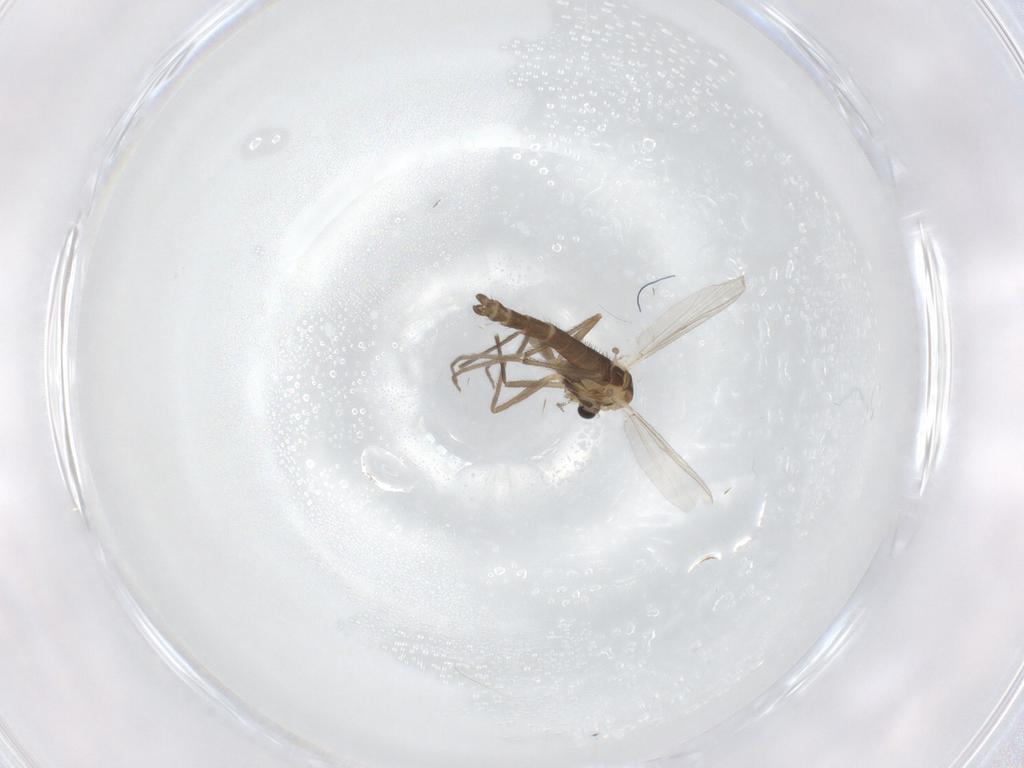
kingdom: Animalia
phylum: Arthropoda
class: Insecta
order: Diptera
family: Chironomidae
